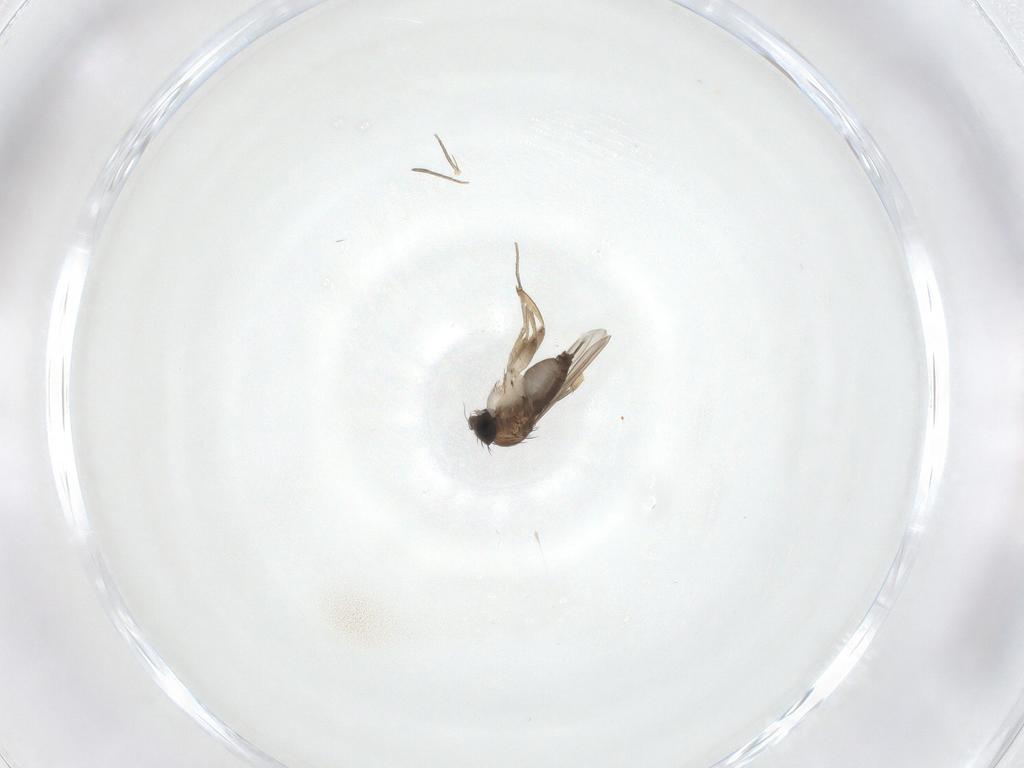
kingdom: Animalia
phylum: Arthropoda
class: Insecta
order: Diptera
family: Phoridae
